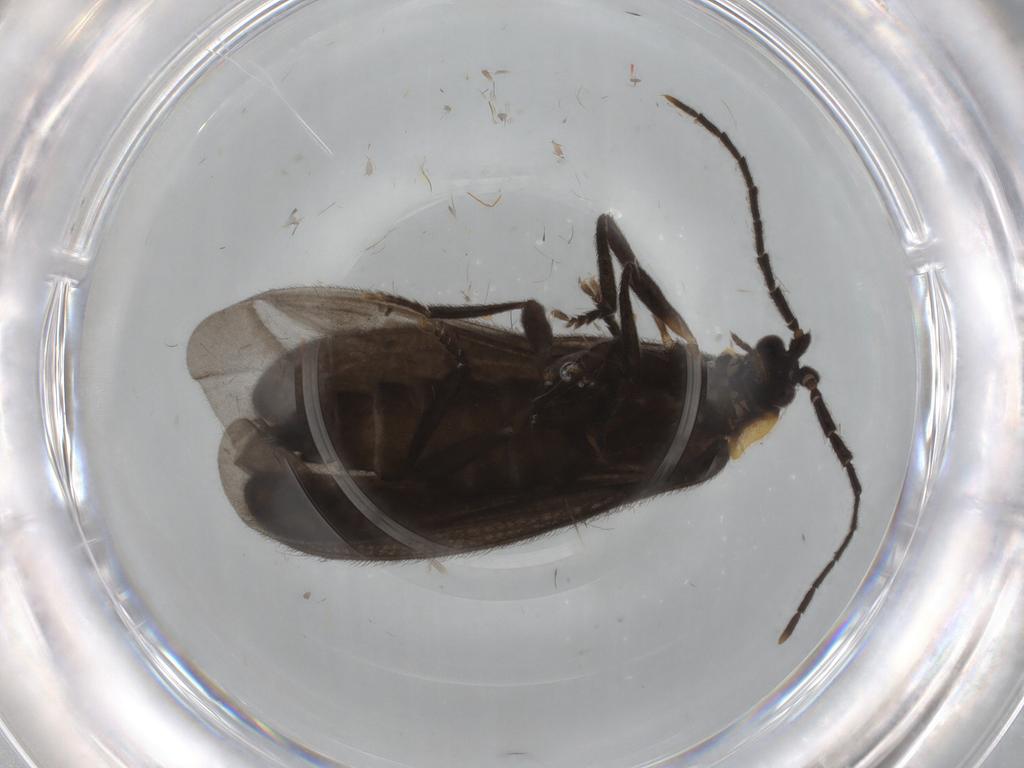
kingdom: Animalia
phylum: Arthropoda
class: Insecta
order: Coleoptera
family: Lycidae
